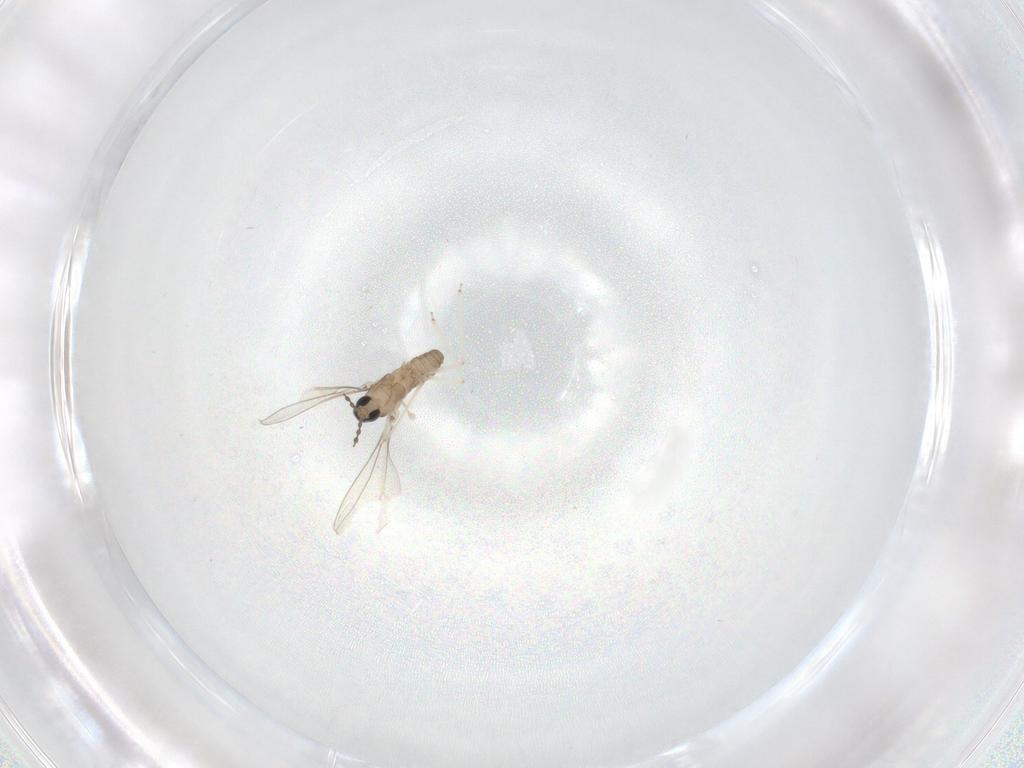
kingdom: Animalia
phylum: Arthropoda
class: Insecta
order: Diptera
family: Cecidomyiidae
